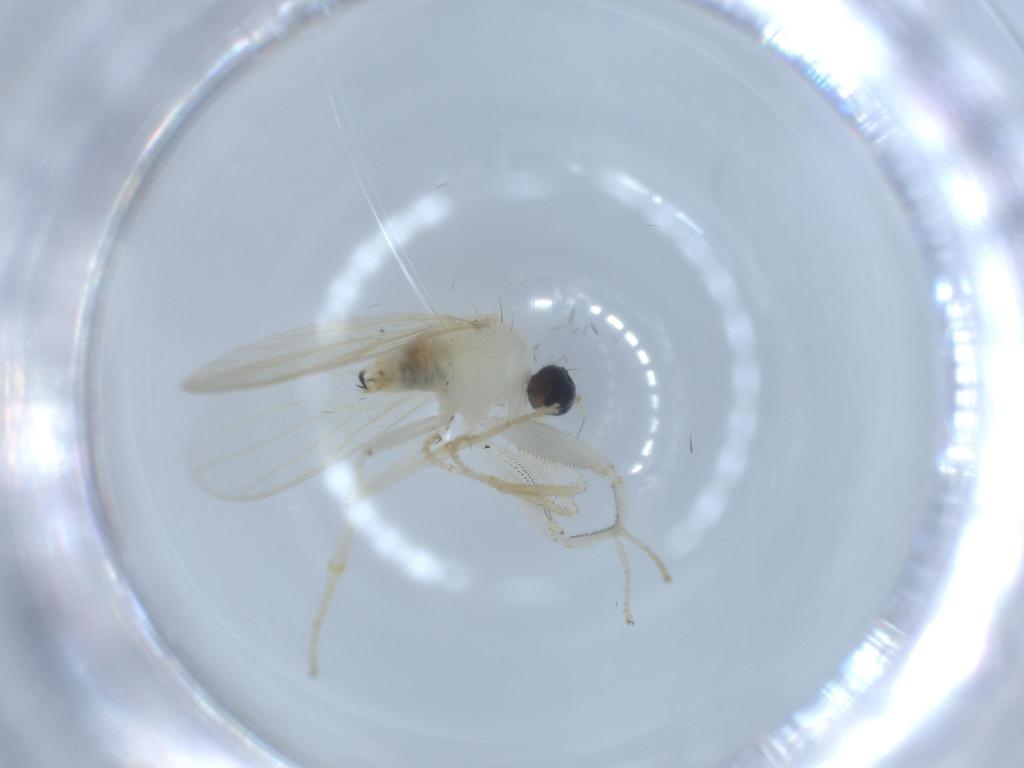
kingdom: Animalia
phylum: Arthropoda
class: Insecta
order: Diptera
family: Hybotidae
